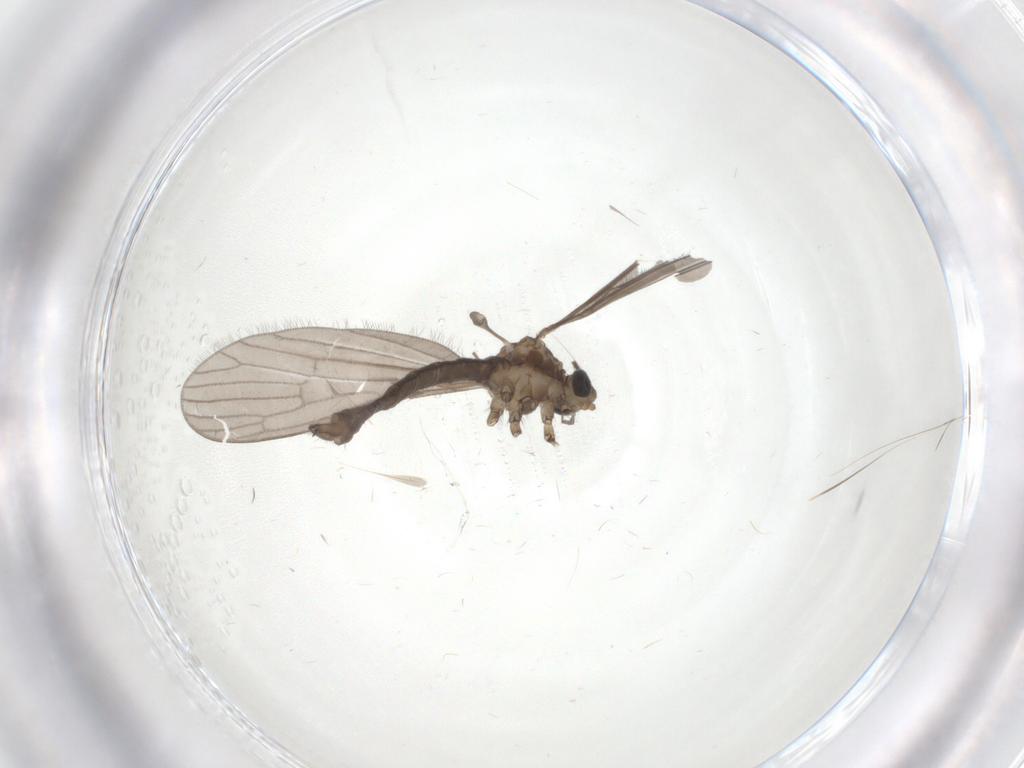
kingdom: Animalia
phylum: Arthropoda
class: Insecta
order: Diptera
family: Limoniidae
